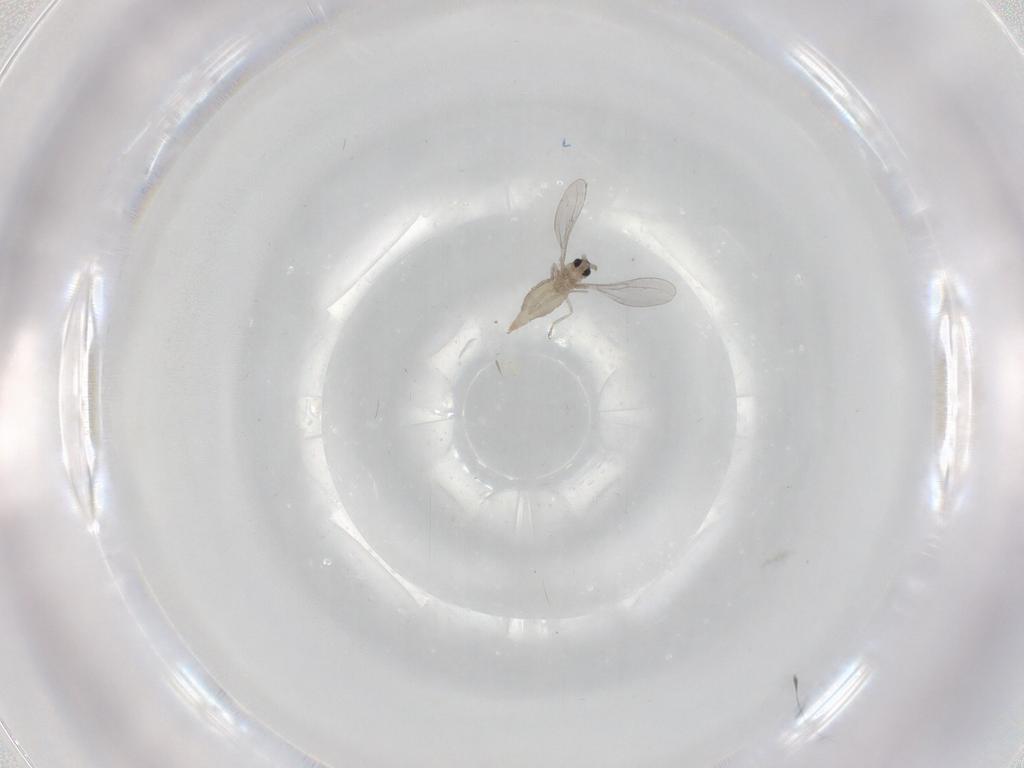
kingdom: Animalia
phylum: Arthropoda
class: Insecta
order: Diptera
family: Cecidomyiidae
